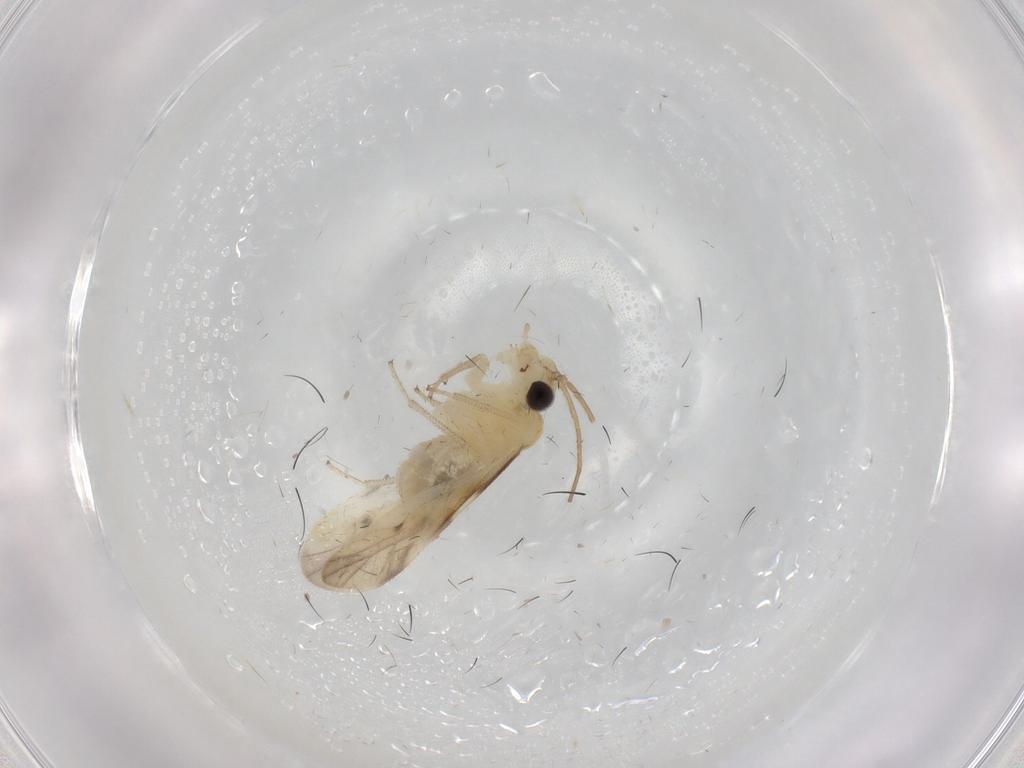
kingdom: Animalia
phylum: Arthropoda
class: Insecta
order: Psocodea
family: Caeciliusidae
